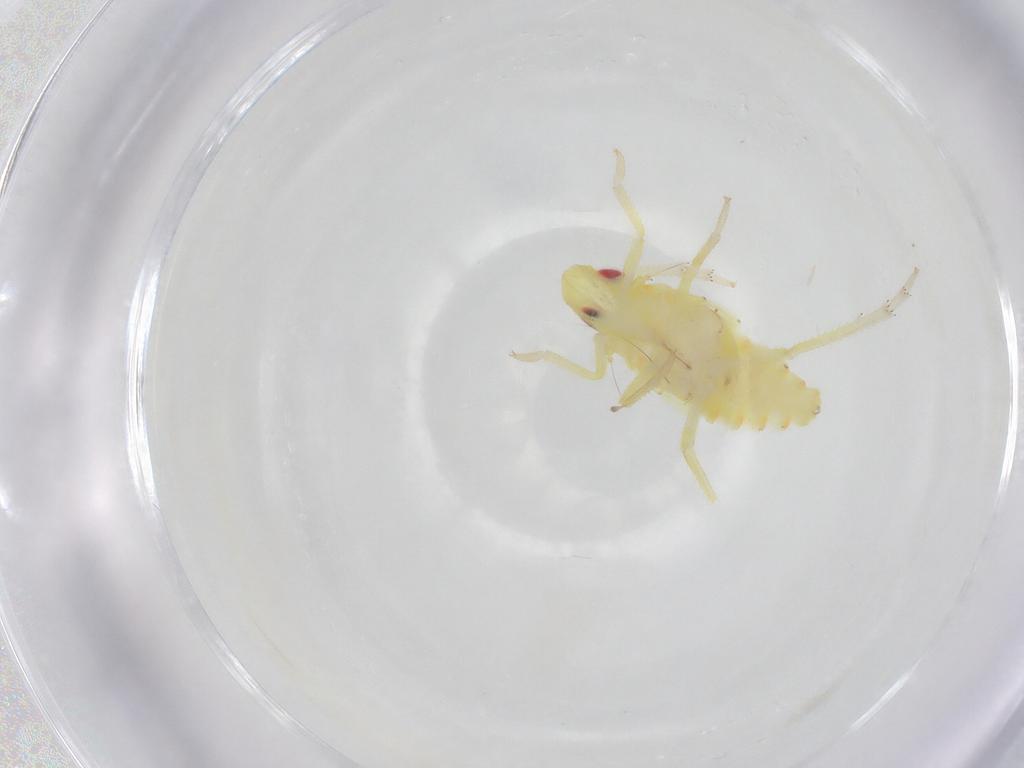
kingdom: Animalia
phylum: Arthropoda
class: Insecta
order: Hemiptera
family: Tropiduchidae
